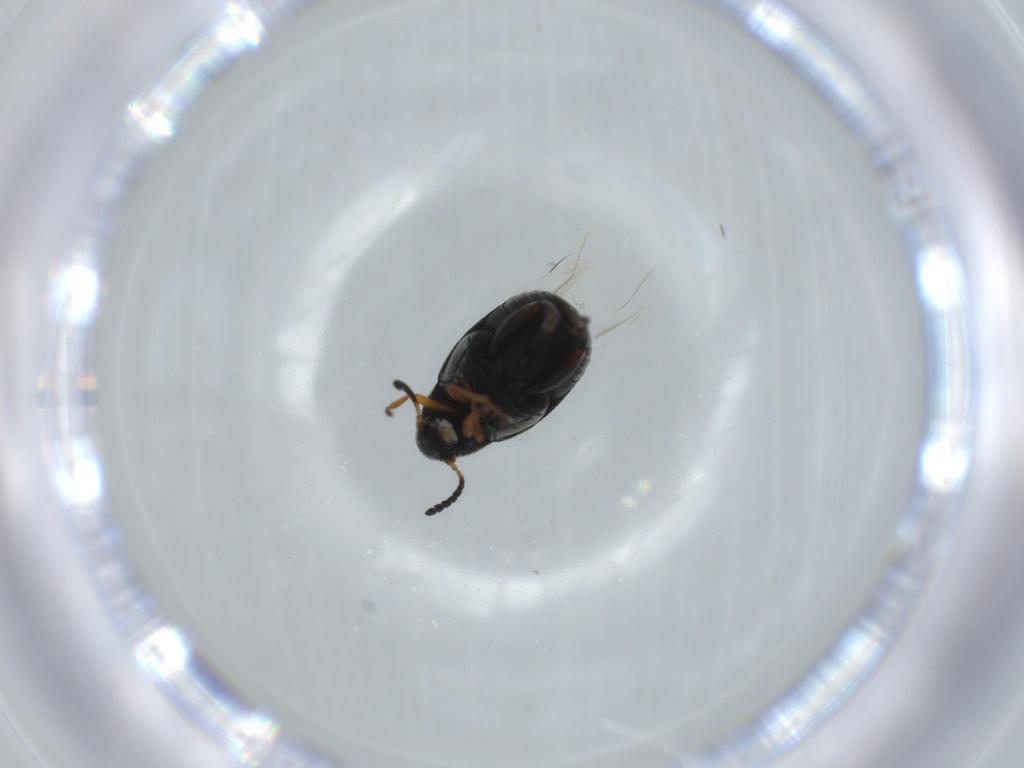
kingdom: Animalia
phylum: Arthropoda
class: Insecta
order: Coleoptera
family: Chrysomelidae
